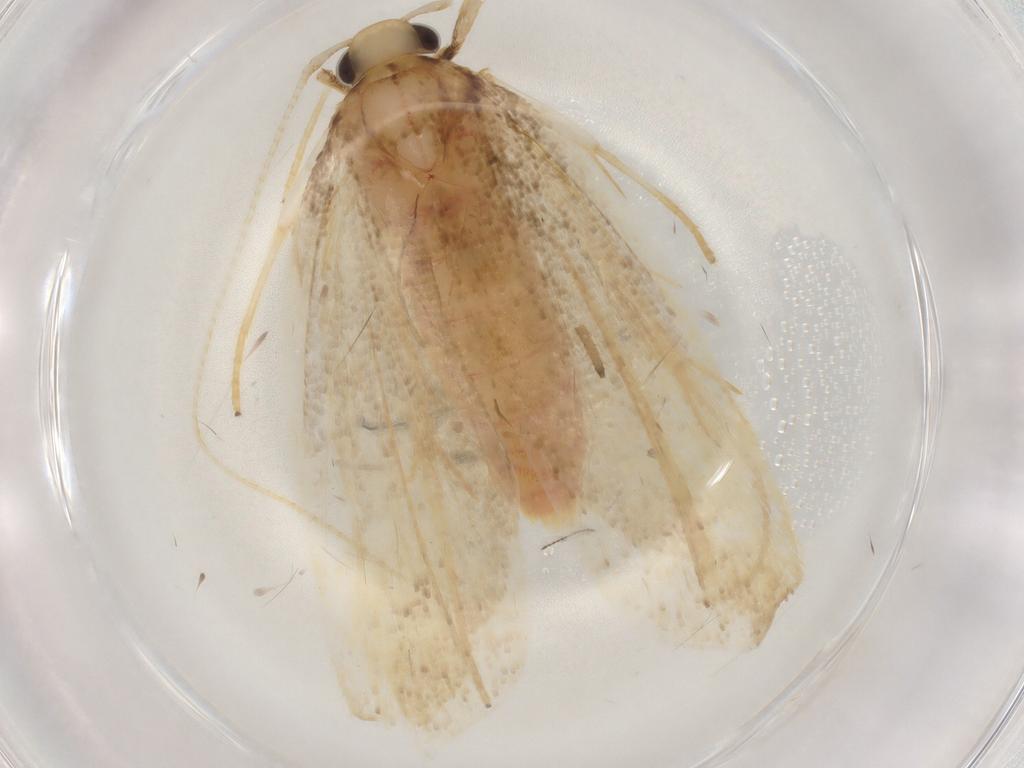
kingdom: Animalia
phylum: Arthropoda
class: Insecta
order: Lepidoptera
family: Lecithoceridae
